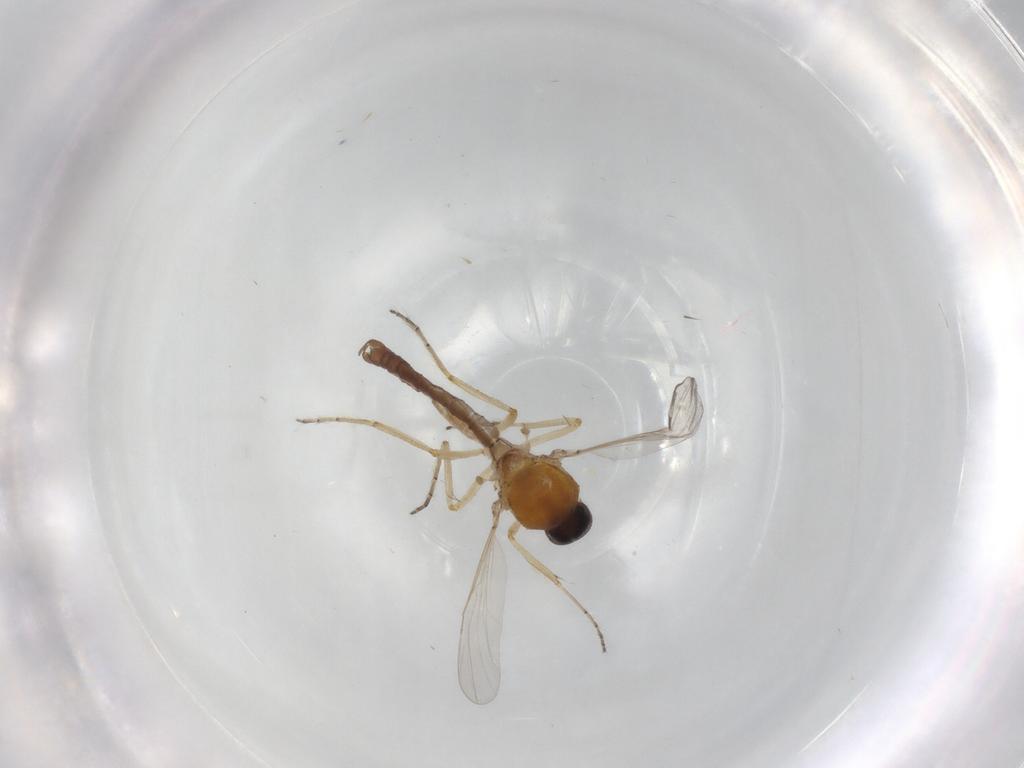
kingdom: Animalia
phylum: Arthropoda
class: Insecta
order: Diptera
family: Ceratopogonidae
